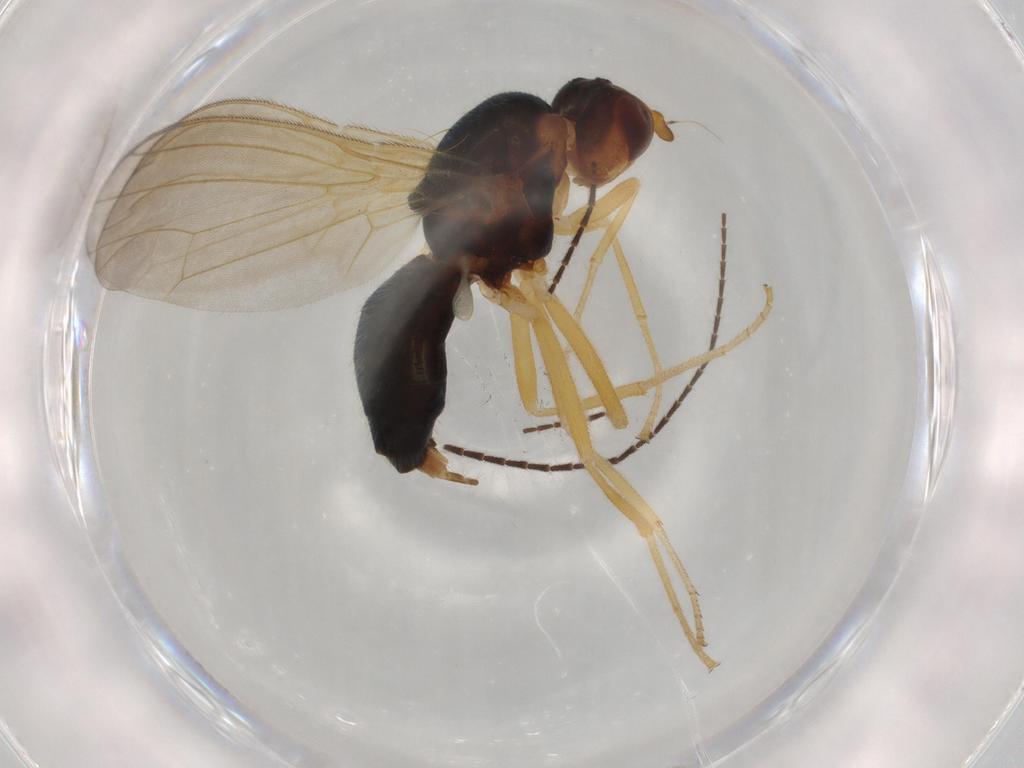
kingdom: Animalia
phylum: Arthropoda
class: Insecta
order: Diptera
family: Hybotidae
